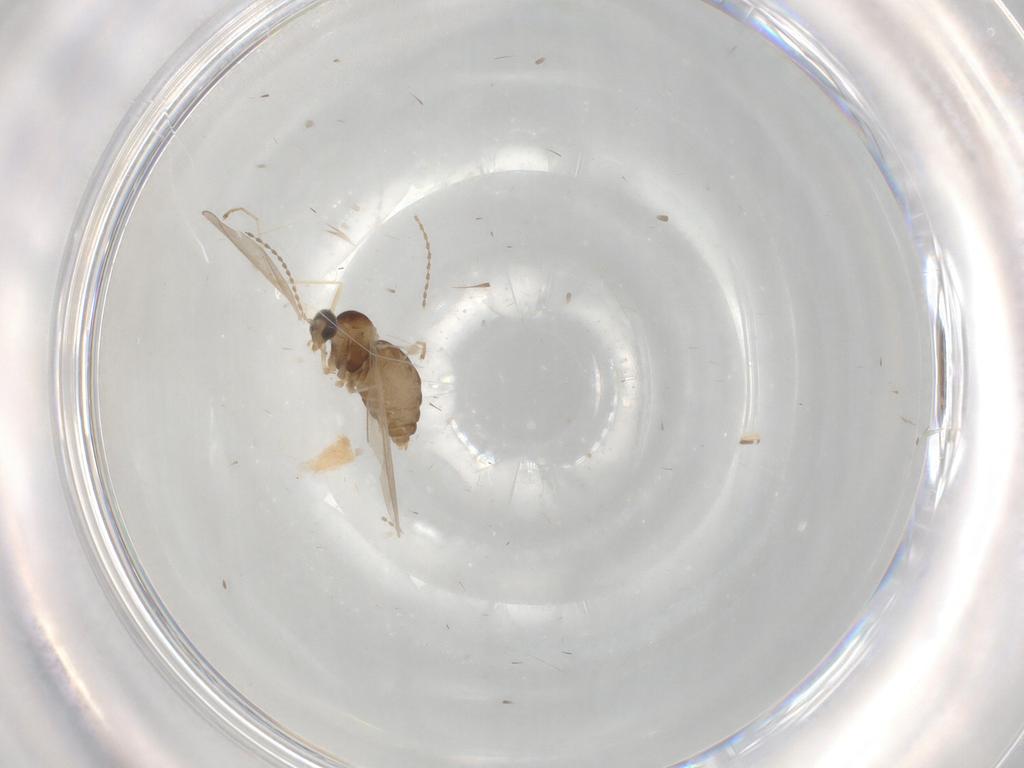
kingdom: Animalia
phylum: Arthropoda
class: Insecta
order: Diptera
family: Cecidomyiidae
